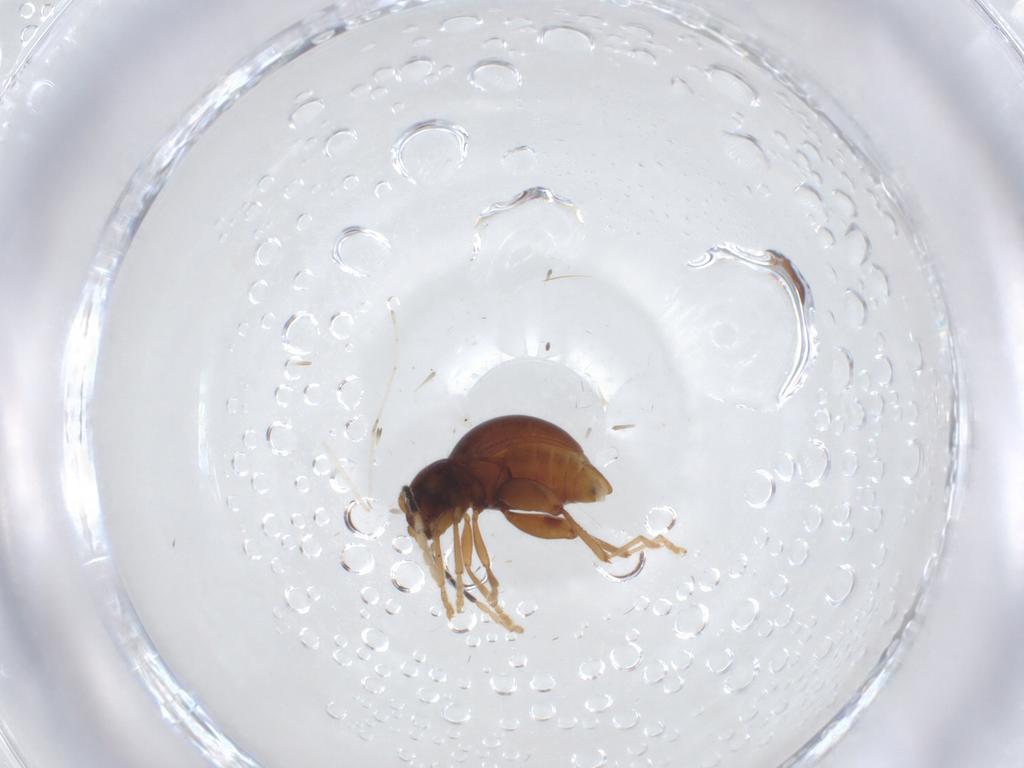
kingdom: Animalia
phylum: Arthropoda
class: Insecta
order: Coleoptera
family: Chrysomelidae
